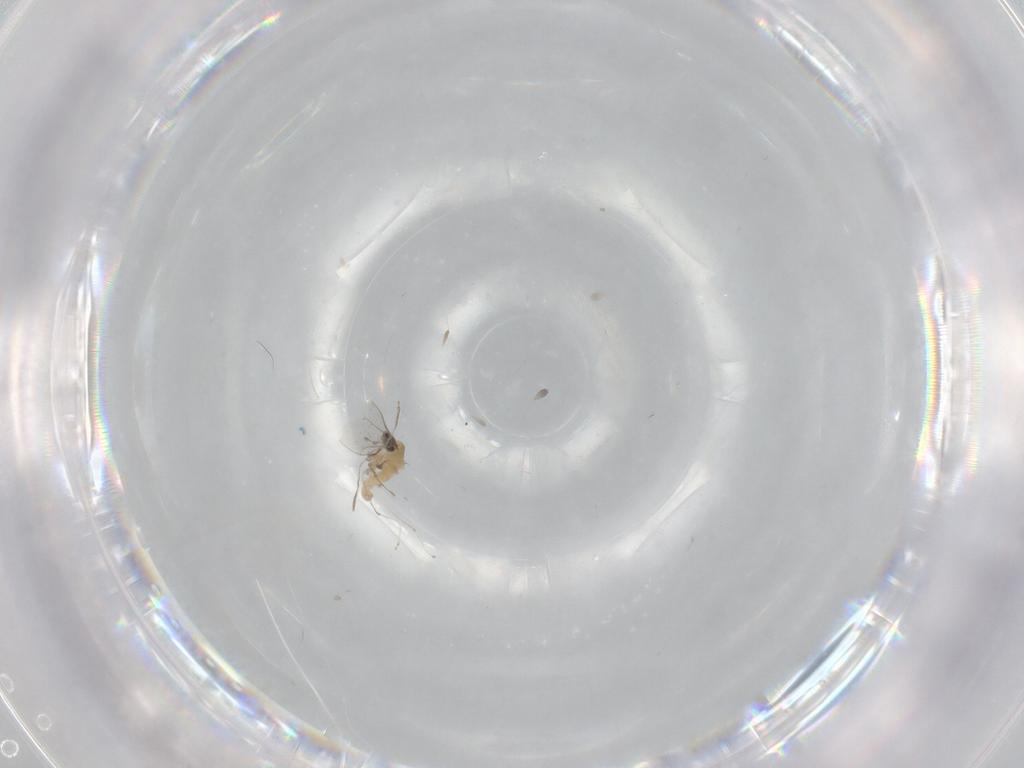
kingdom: Animalia
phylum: Arthropoda
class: Insecta
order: Diptera
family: Cecidomyiidae
